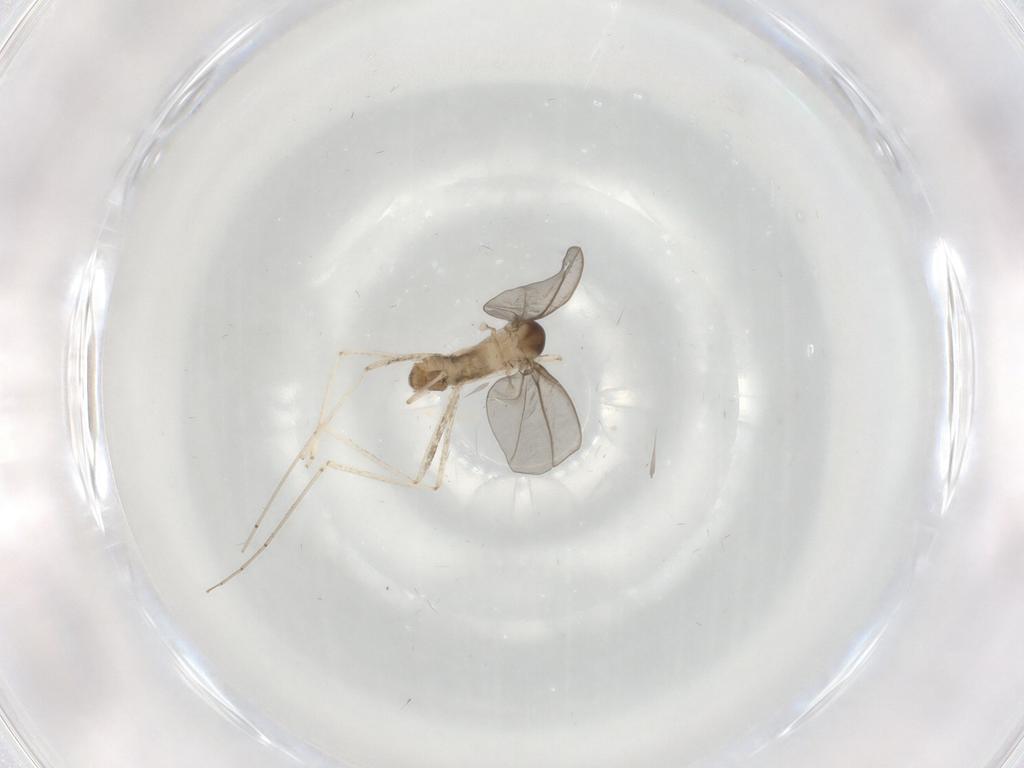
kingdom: Animalia
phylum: Arthropoda
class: Insecta
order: Diptera
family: Cecidomyiidae
